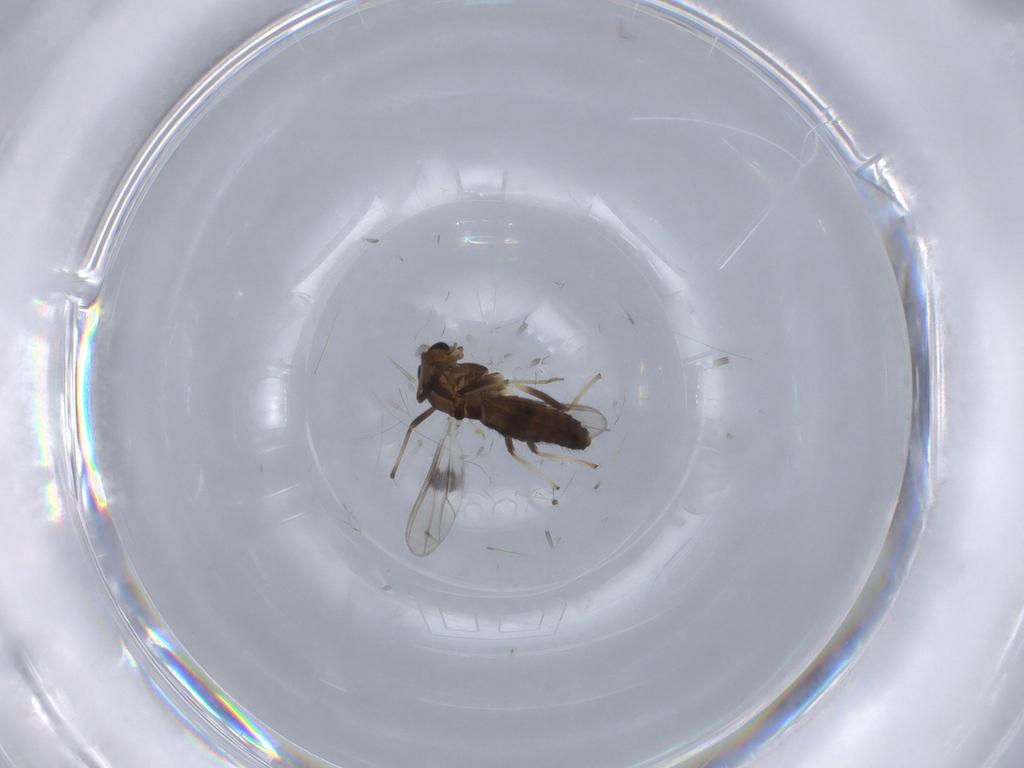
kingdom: Animalia
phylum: Arthropoda
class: Insecta
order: Diptera
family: Chironomidae
